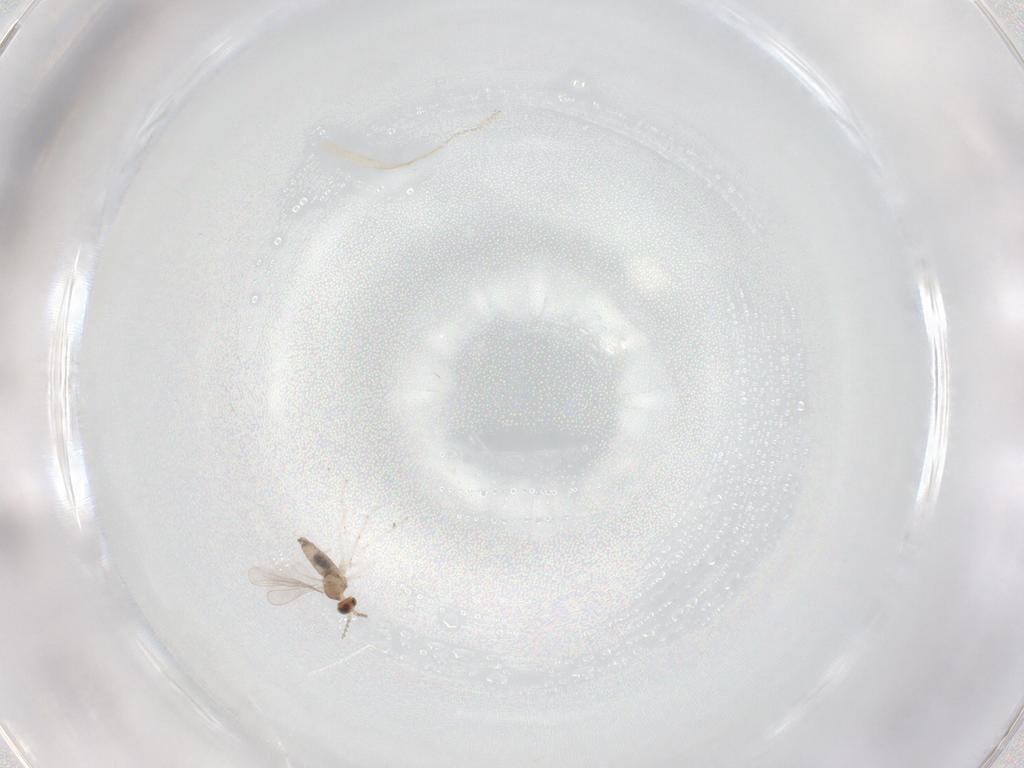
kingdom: Animalia
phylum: Arthropoda
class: Insecta
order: Diptera
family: Cecidomyiidae
